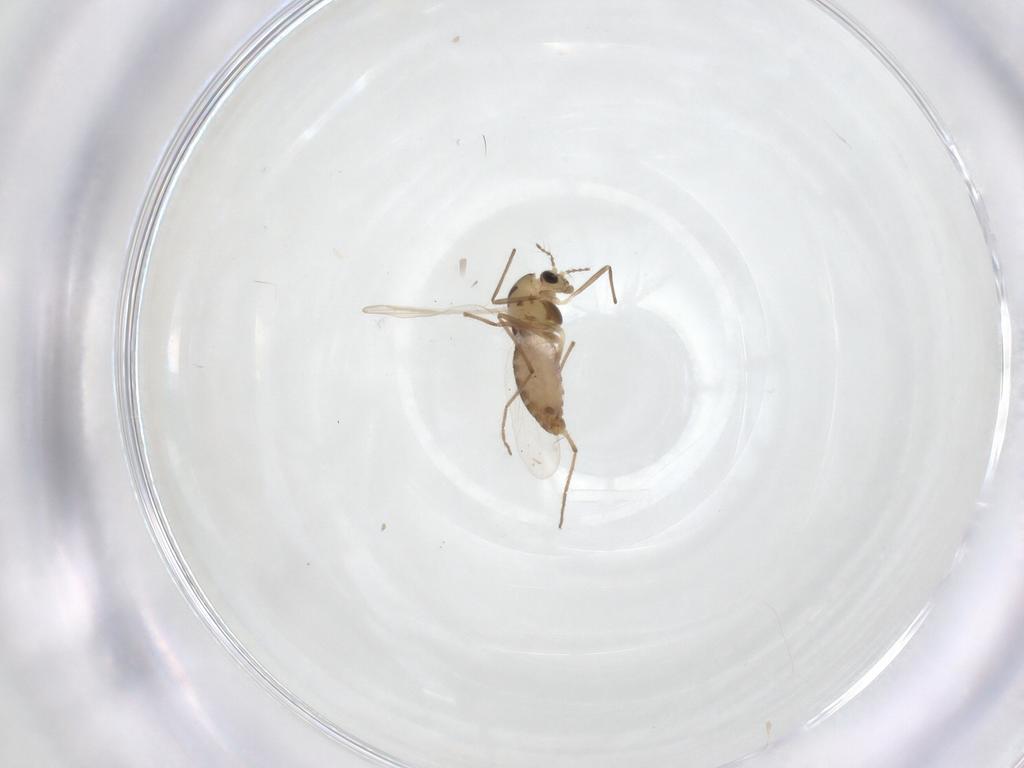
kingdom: Animalia
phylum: Arthropoda
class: Insecta
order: Diptera
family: Chironomidae
